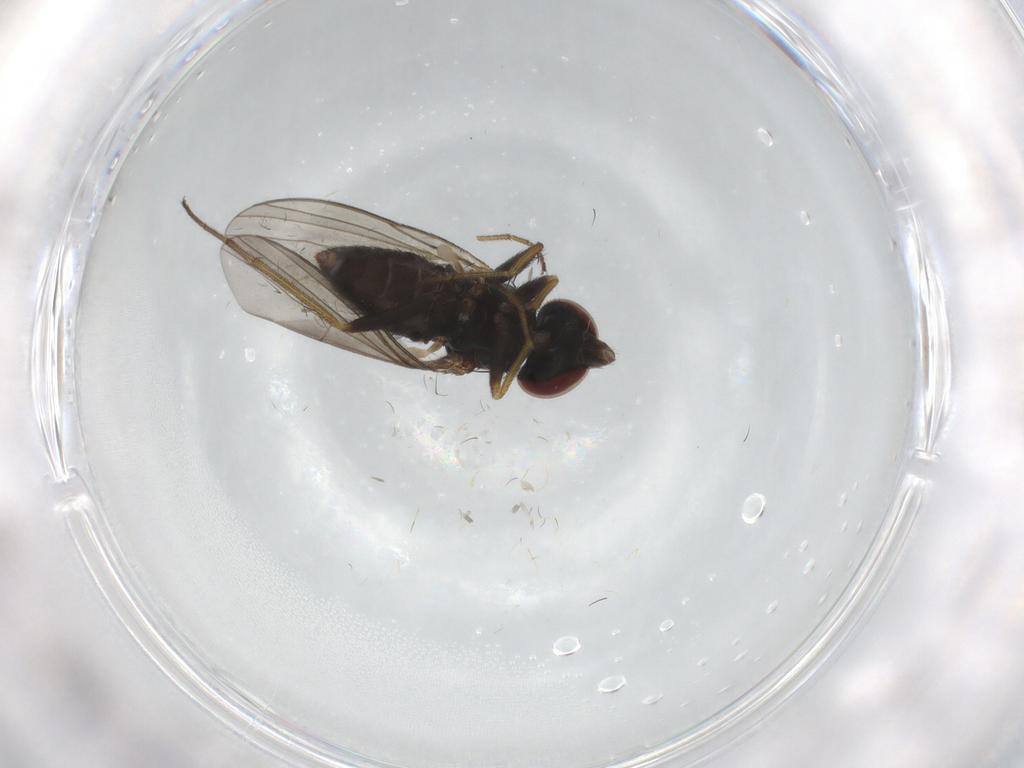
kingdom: Animalia
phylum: Arthropoda
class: Insecta
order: Diptera
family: Dolichopodidae
